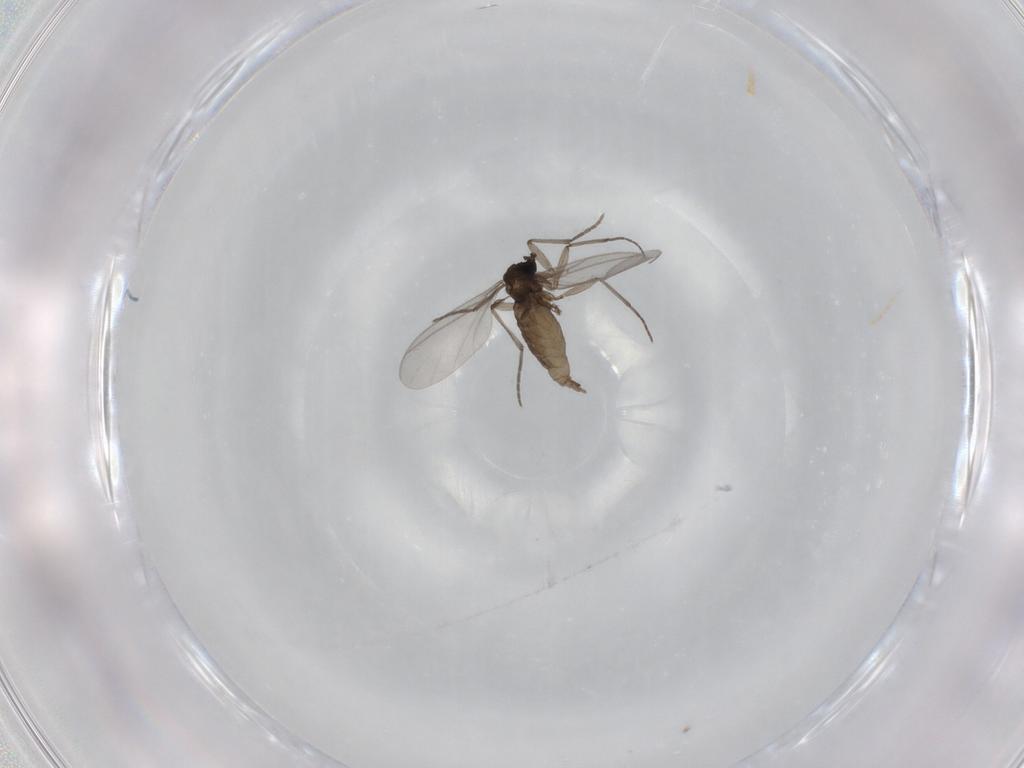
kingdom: Animalia
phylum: Arthropoda
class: Insecta
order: Diptera
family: Sciaridae
